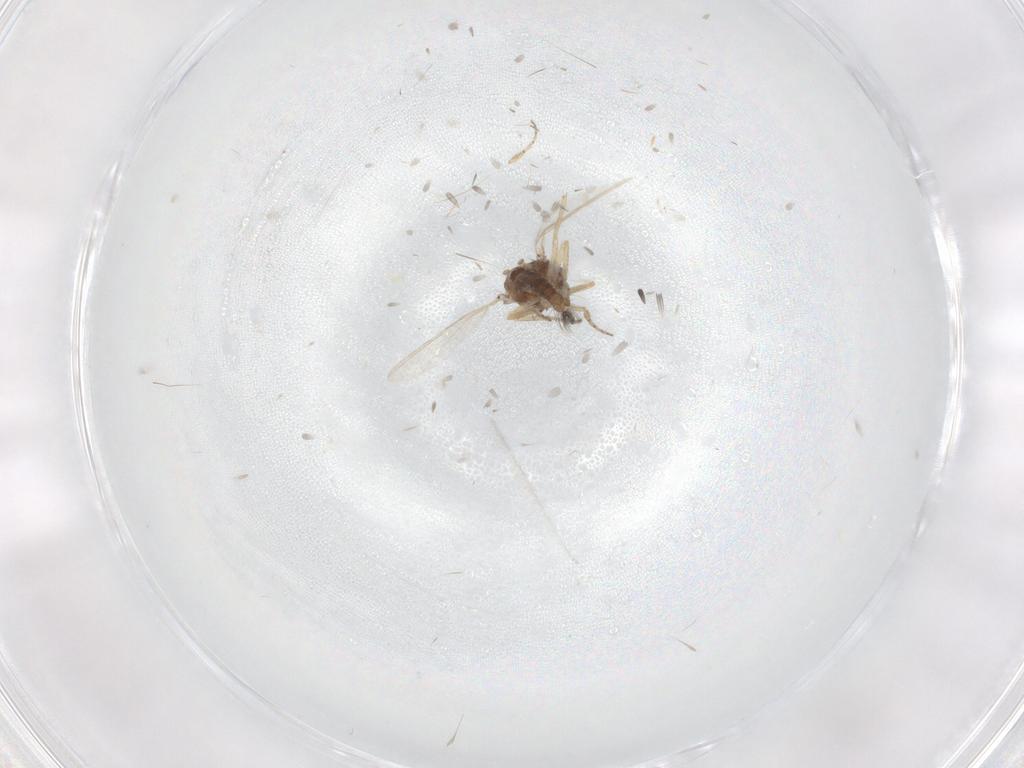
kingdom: Animalia
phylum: Arthropoda
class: Insecta
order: Diptera
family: Ceratopogonidae
